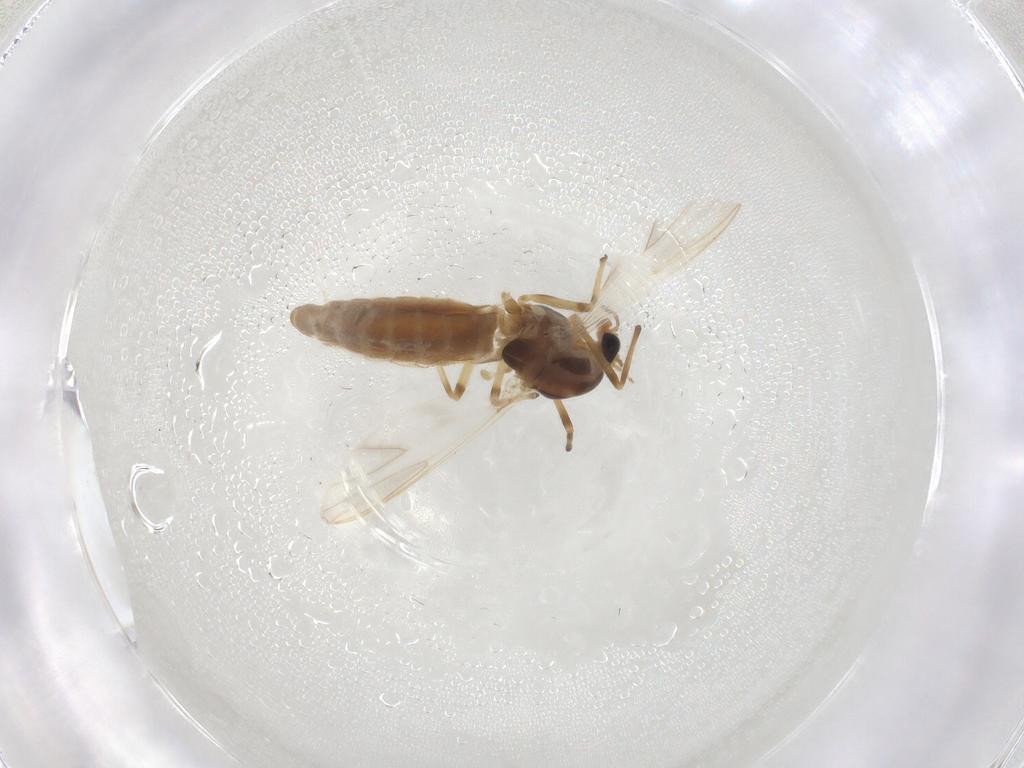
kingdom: Animalia
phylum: Arthropoda
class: Insecta
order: Diptera
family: Chironomidae
